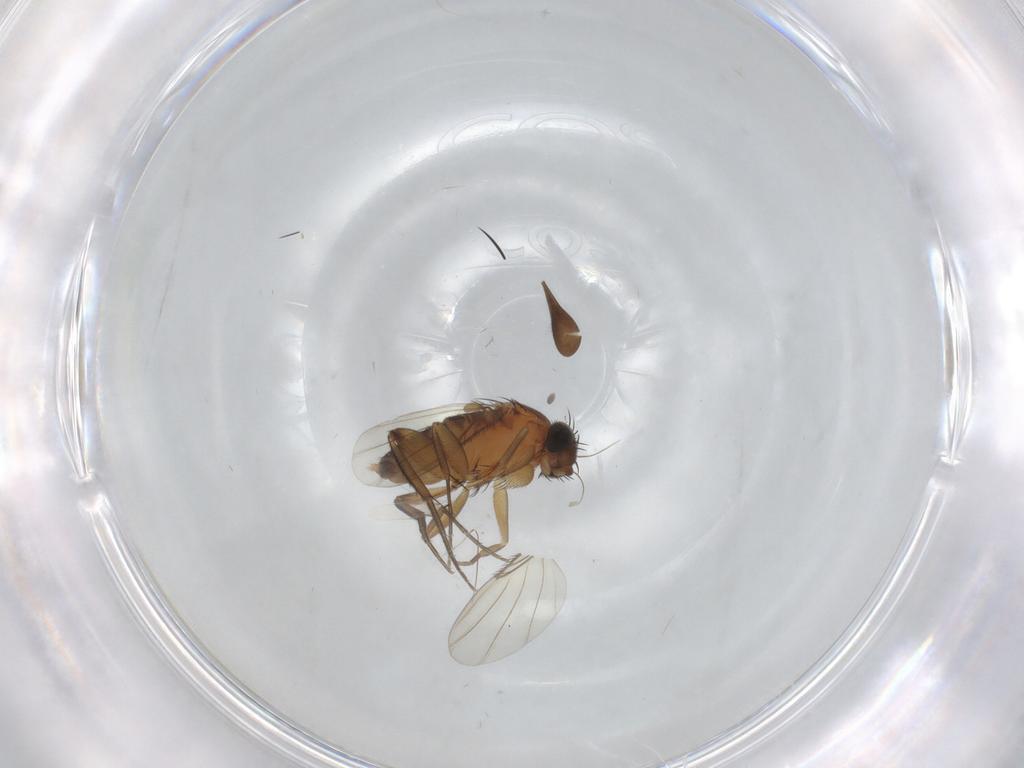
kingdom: Animalia
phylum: Arthropoda
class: Insecta
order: Diptera
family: Sciaridae
